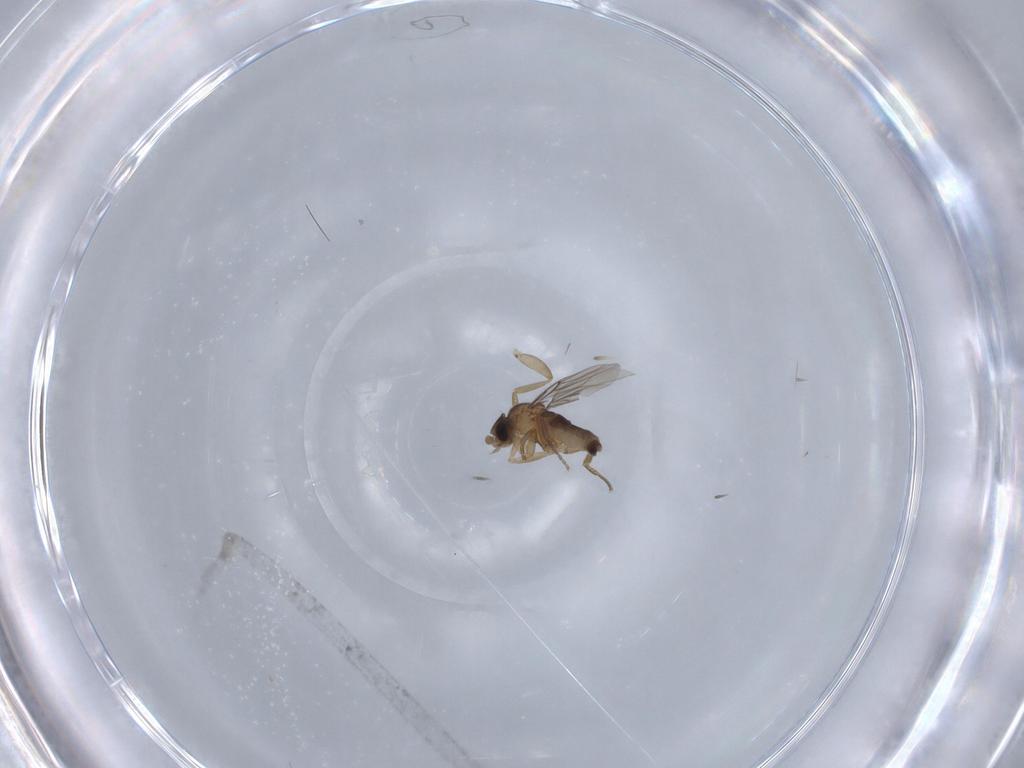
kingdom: Animalia
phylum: Arthropoda
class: Insecta
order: Diptera
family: Phoridae
